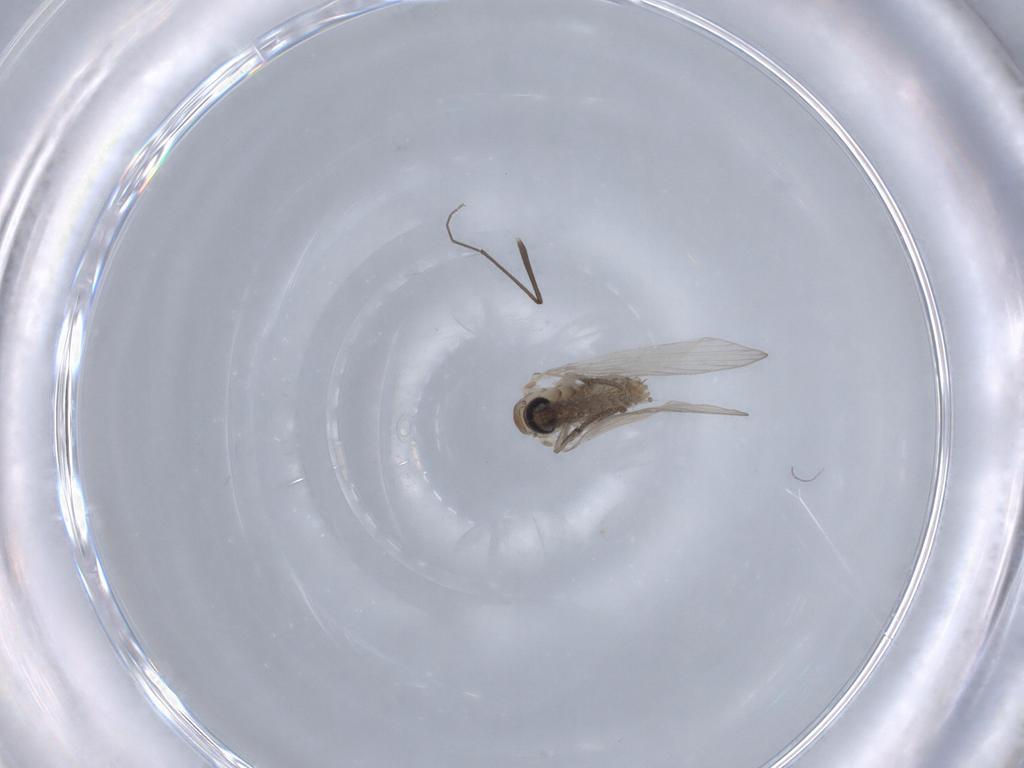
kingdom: Animalia
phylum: Arthropoda
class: Insecta
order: Diptera
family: Psychodidae
